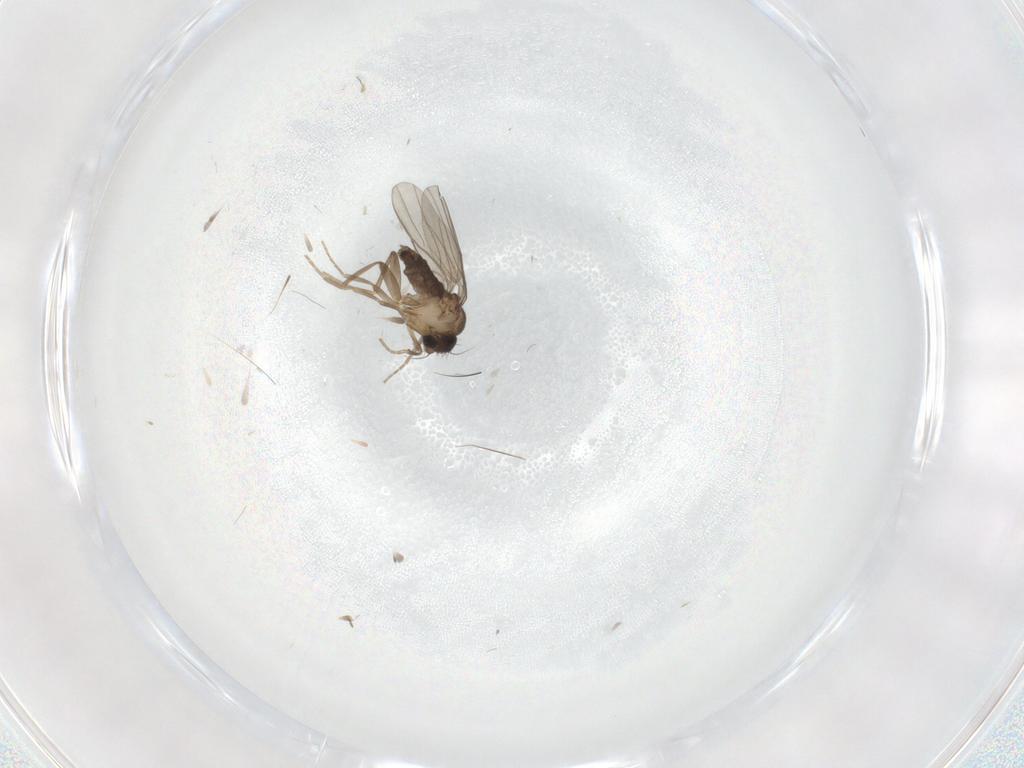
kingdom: Animalia
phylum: Arthropoda
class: Insecta
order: Diptera
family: Phoridae
